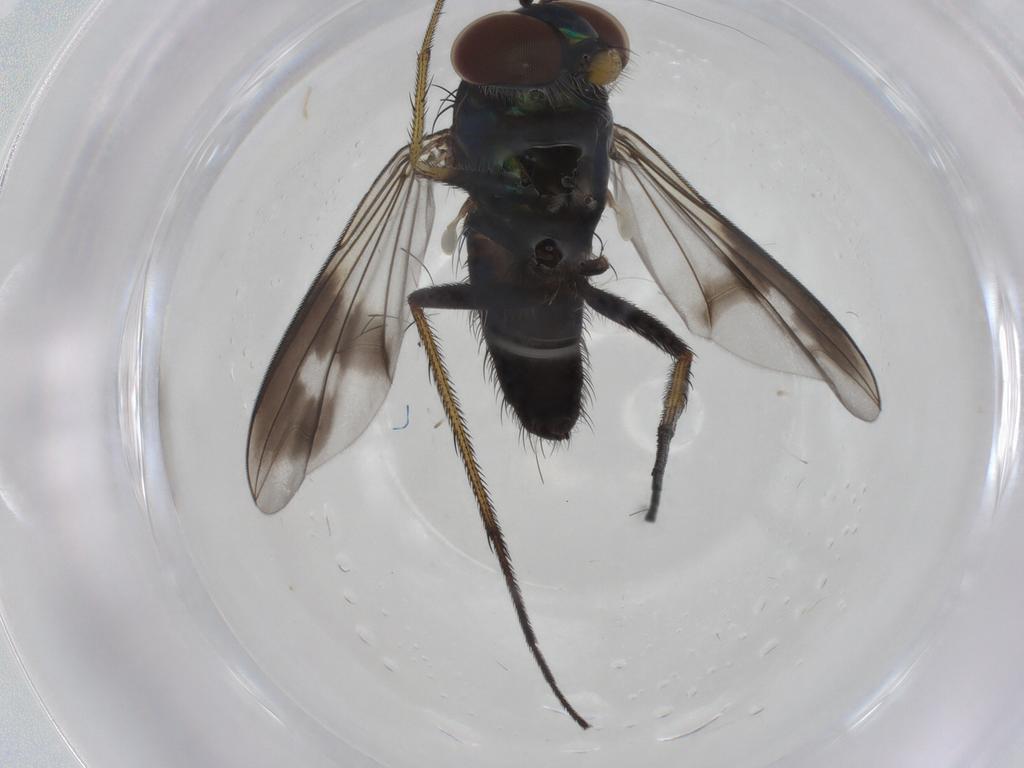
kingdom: Animalia
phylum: Arthropoda
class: Insecta
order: Diptera
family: Dolichopodidae
